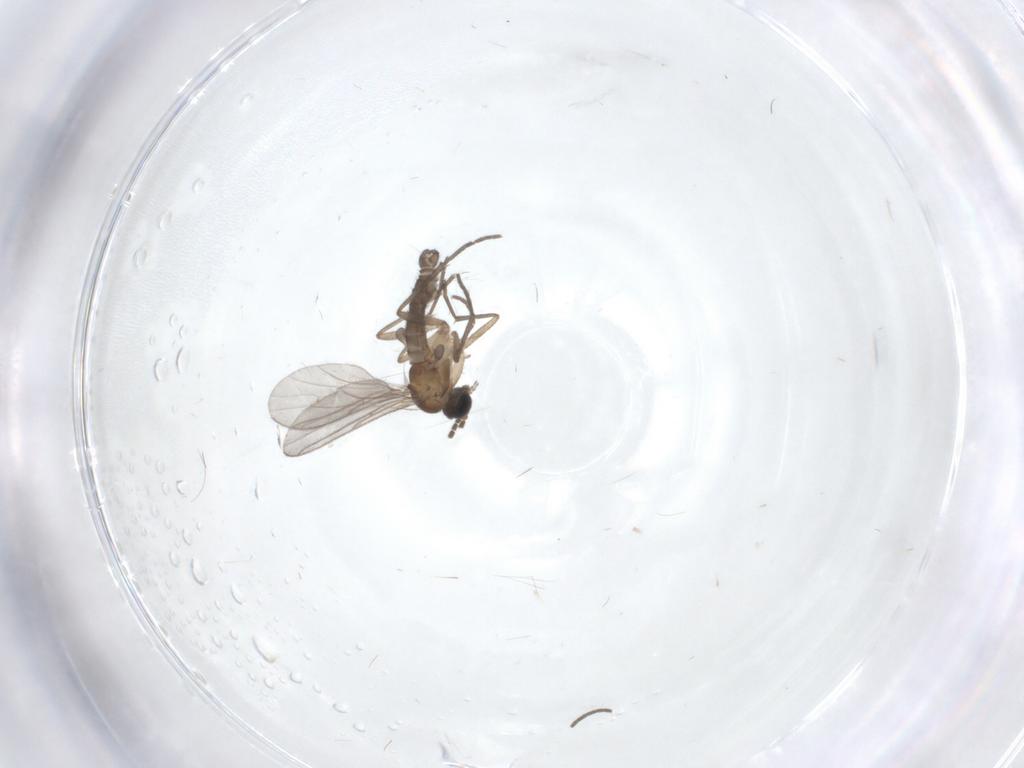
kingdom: Animalia
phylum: Arthropoda
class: Insecta
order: Diptera
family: Sciaridae
